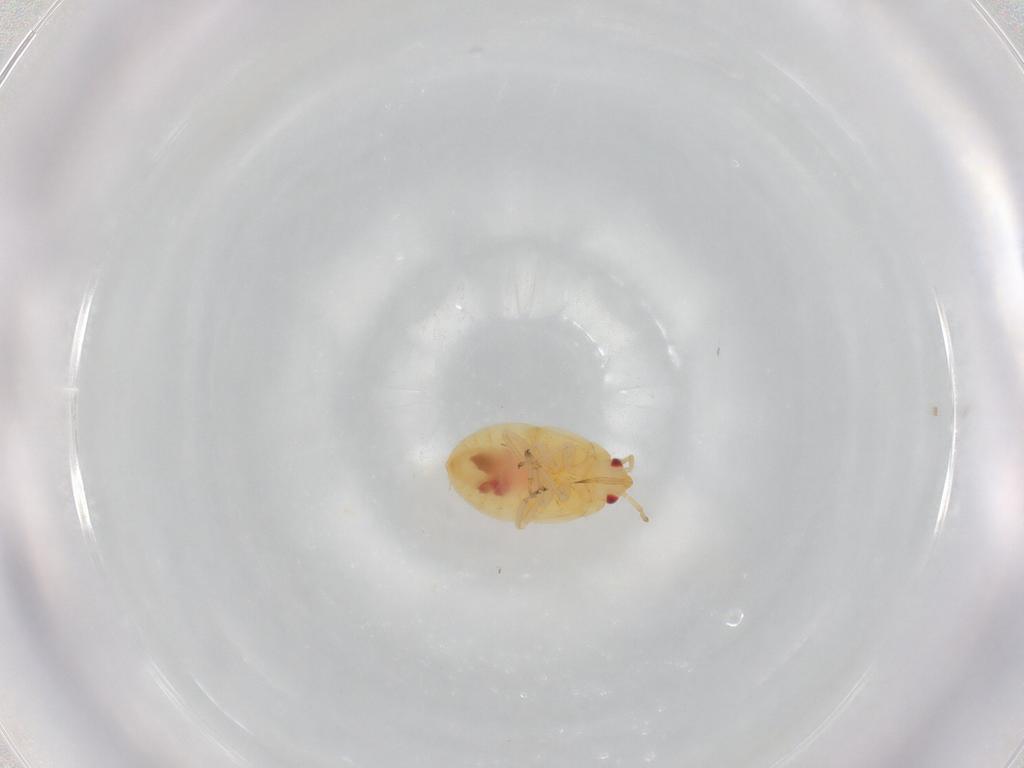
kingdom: Animalia
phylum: Arthropoda
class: Insecta
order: Hemiptera
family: Anthocoridae
